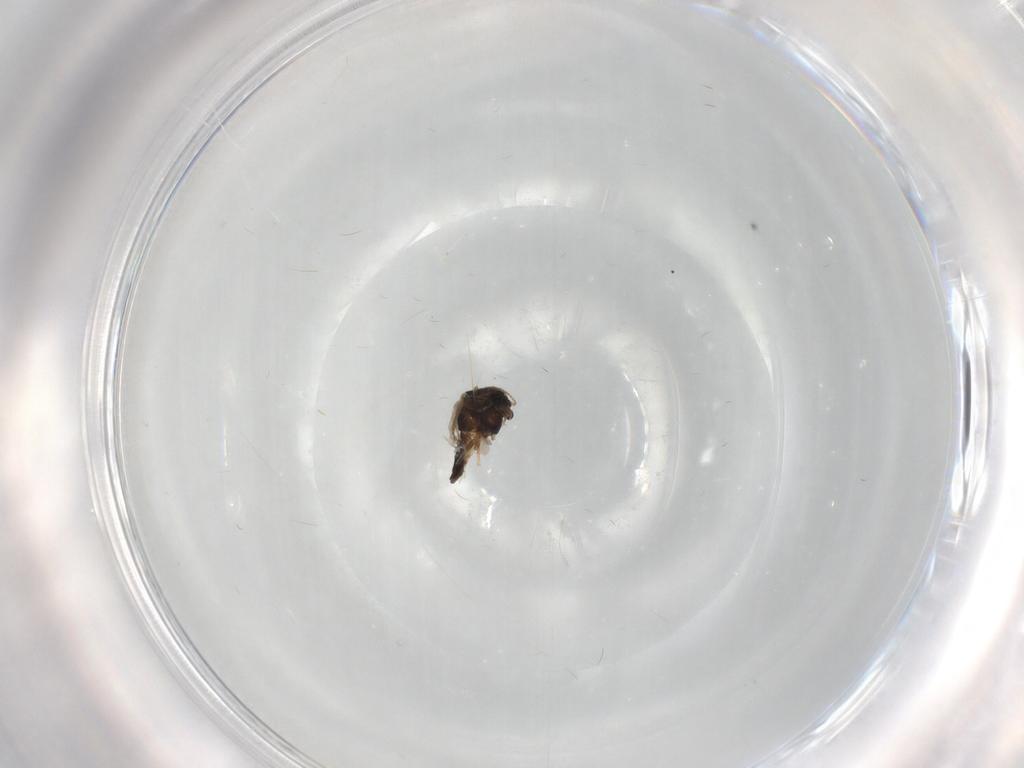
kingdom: Animalia
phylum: Arthropoda
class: Insecta
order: Diptera
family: Chironomidae
